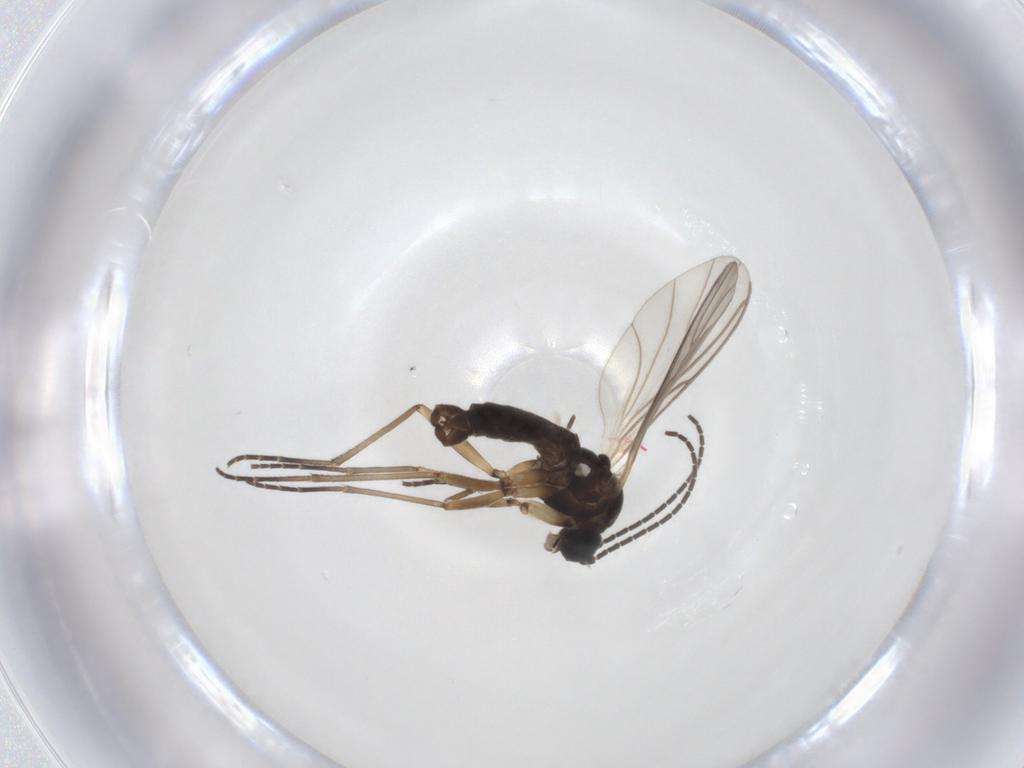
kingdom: Animalia
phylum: Arthropoda
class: Insecta
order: Diptera
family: Sciaridae
